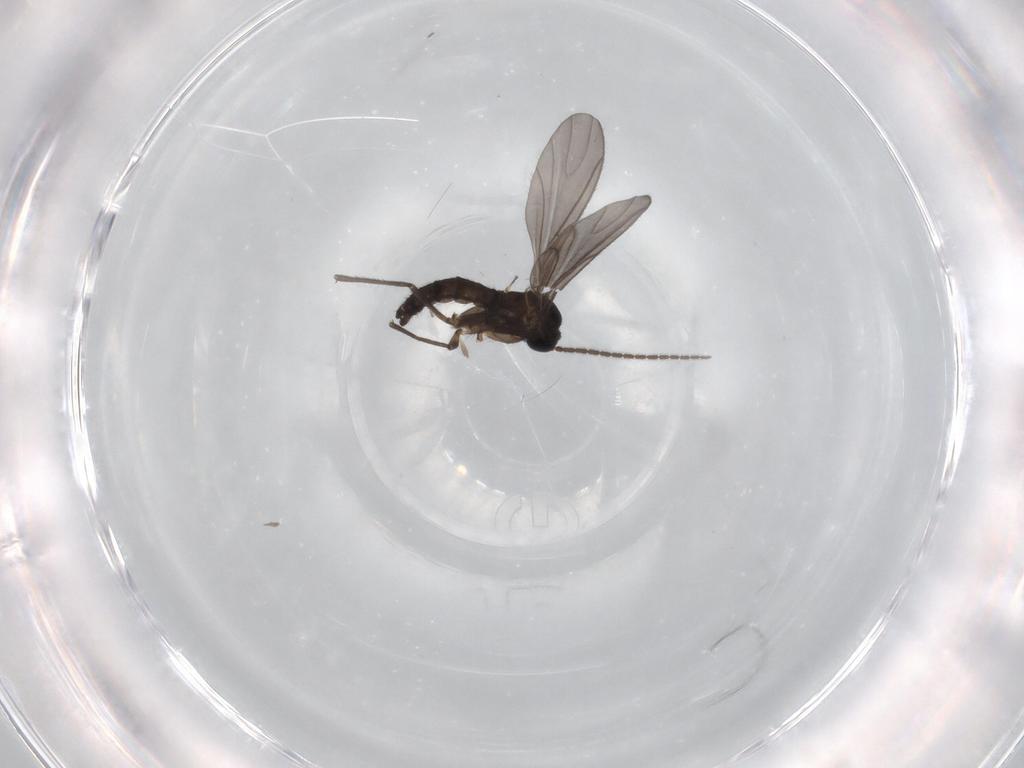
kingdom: Animalia
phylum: Arthropoda
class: Insecta
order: Diptera
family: Sciaridae
